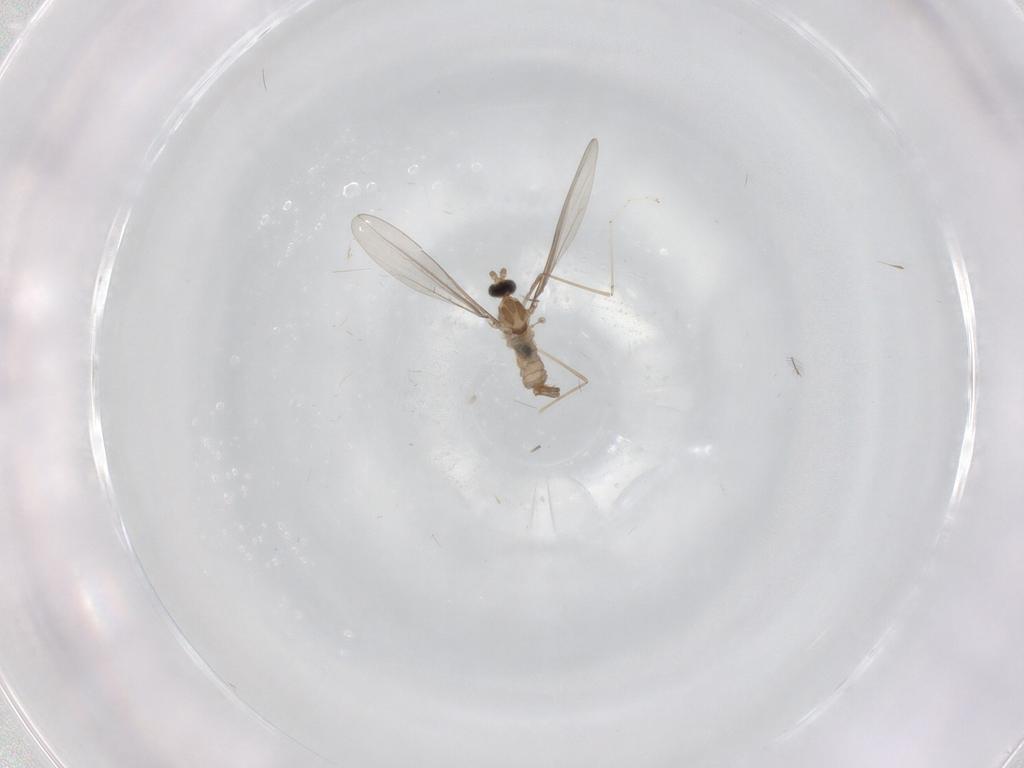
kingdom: Animalia
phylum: Arthropoda
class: Insecta
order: Diptera
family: Chironomidae
